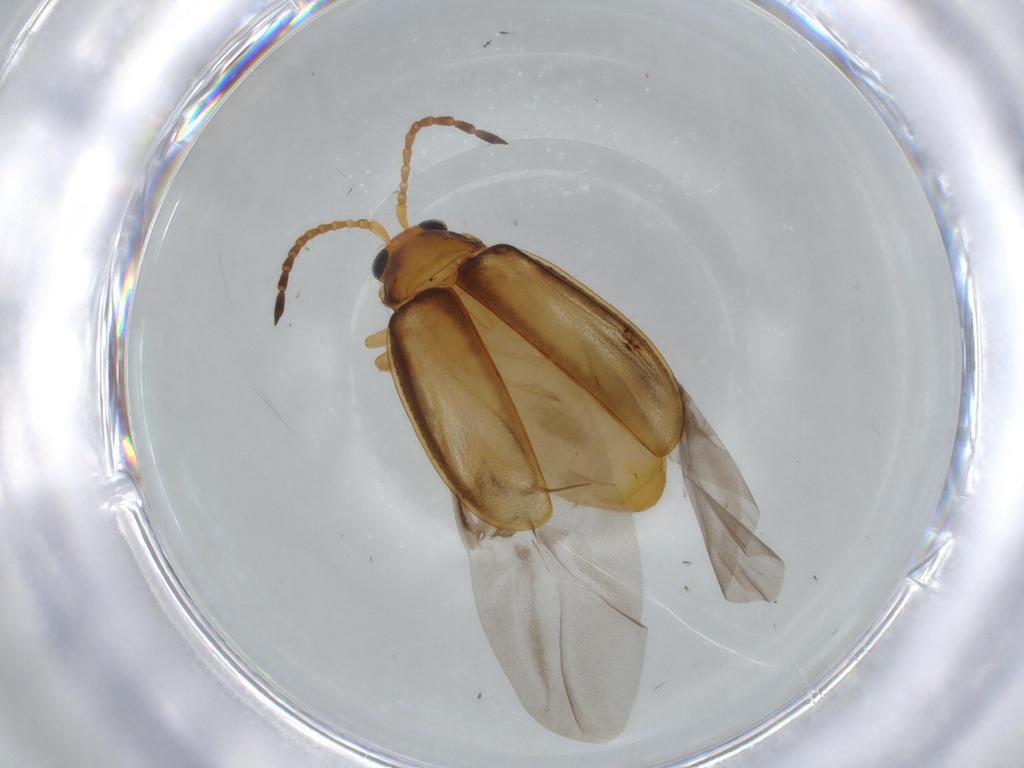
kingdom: Animalia
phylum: Arthropoda
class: Insecta
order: Coleoptera
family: Chrysomelidae
